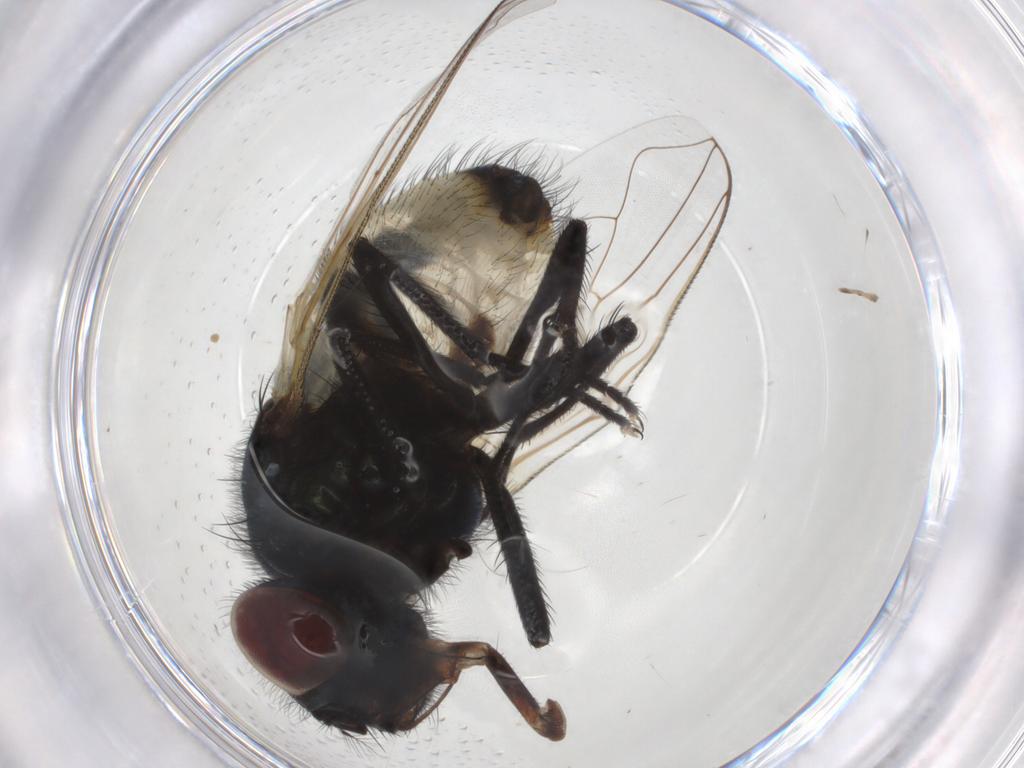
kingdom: Animalia
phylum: Arthropoda
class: Insecta
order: Diptera
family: Muscidae
